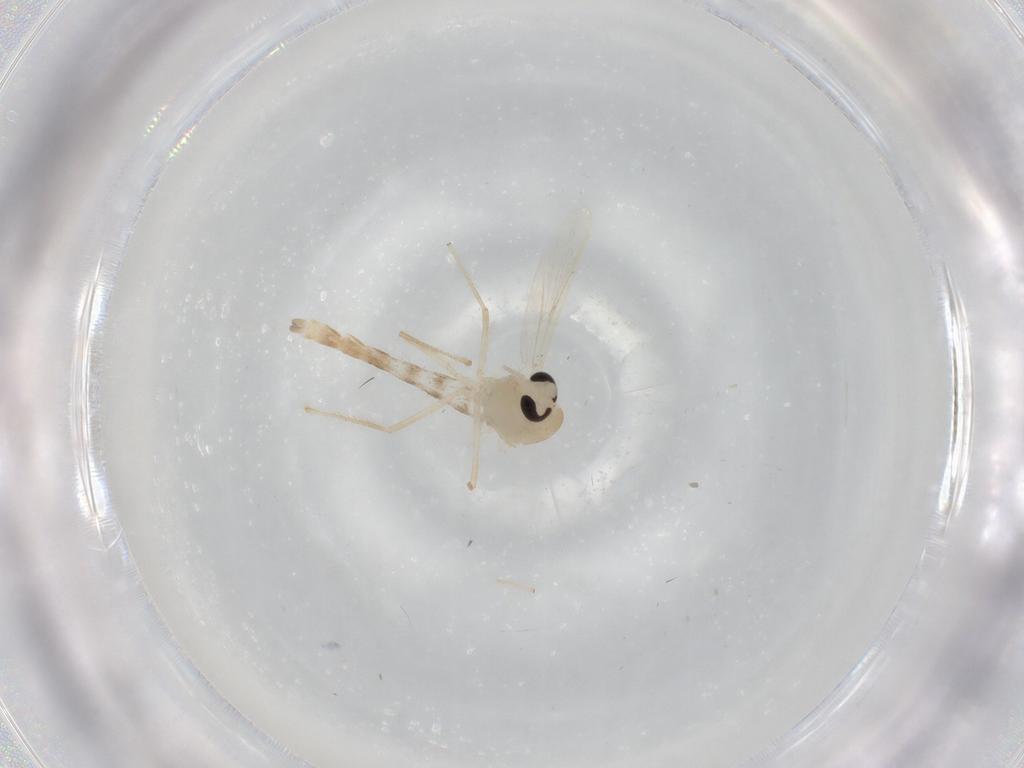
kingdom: Animalia
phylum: Arthropoda
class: Insecta
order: Diptera
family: Chironomidae
